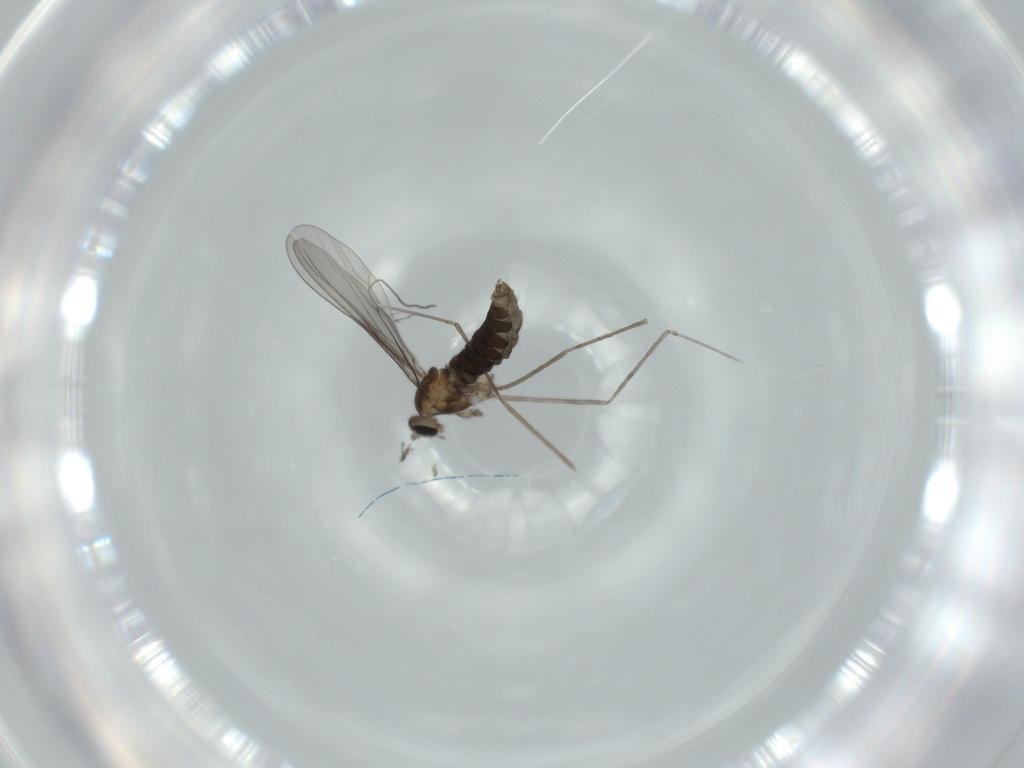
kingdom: Animalia
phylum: Arthropoda
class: Insecta
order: Diptera
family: Cecidomyiidae
